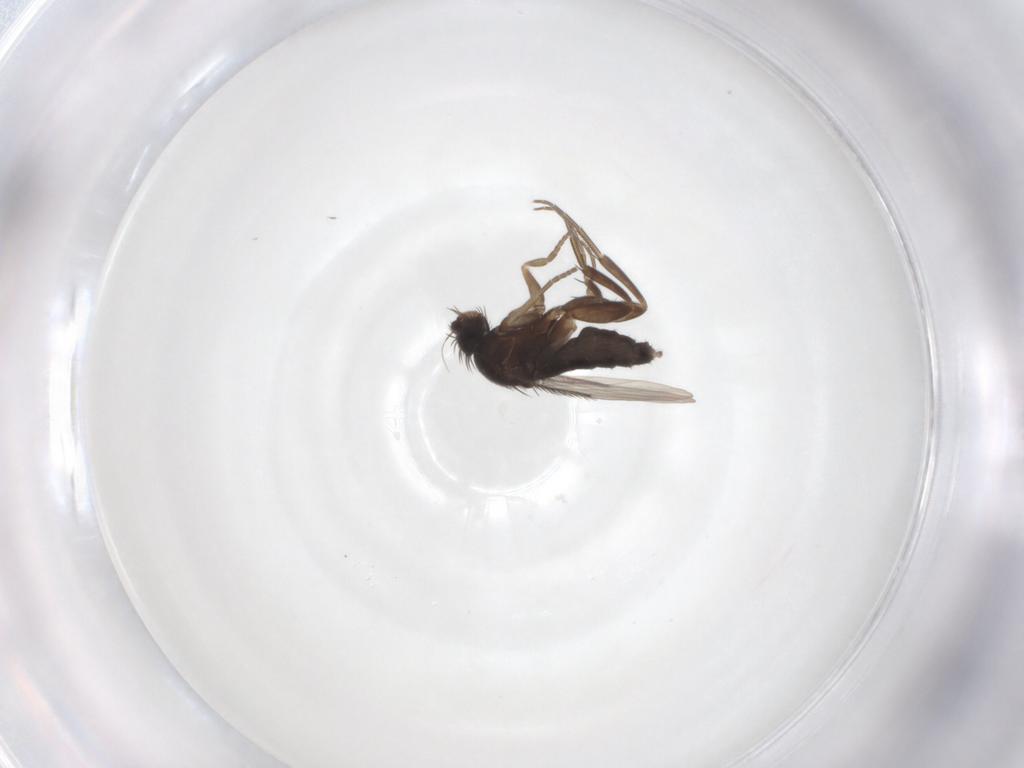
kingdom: Animalia
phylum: Arthropoda
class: Insecta
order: Diptera
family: Phoridae
